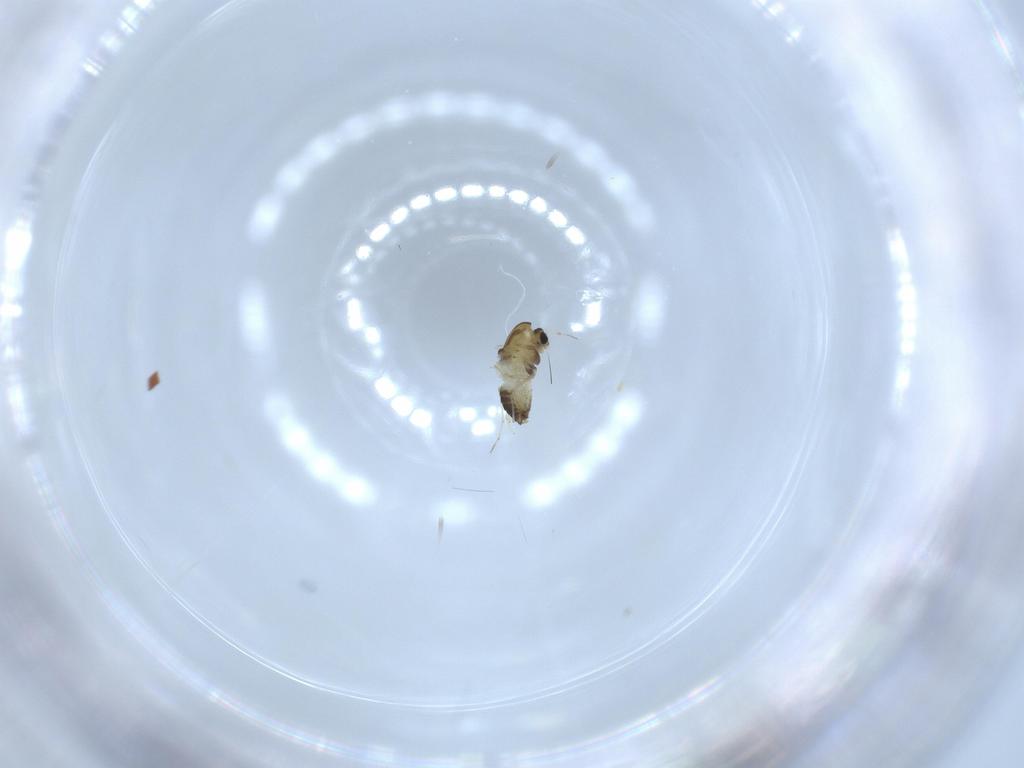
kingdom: Animalia
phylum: Arthropoda
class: Insecta
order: Diptera
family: Chironomidae
